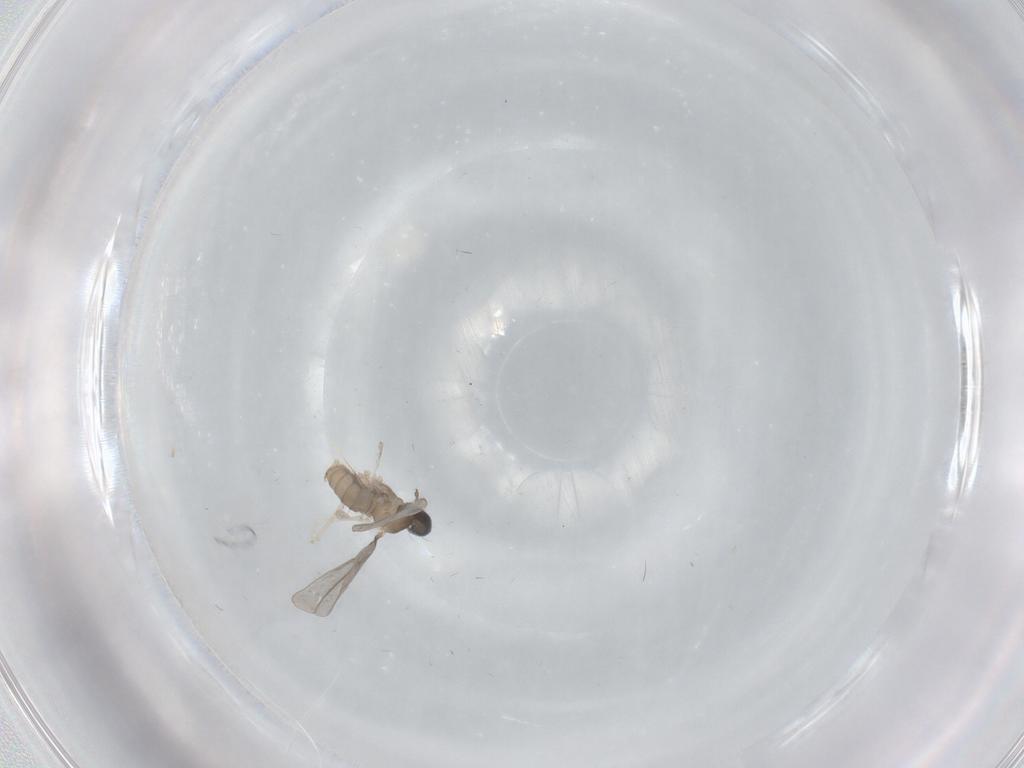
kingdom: Animalia
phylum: Arthropoda
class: Insecta
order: Diptera
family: Cecidomyiidae
